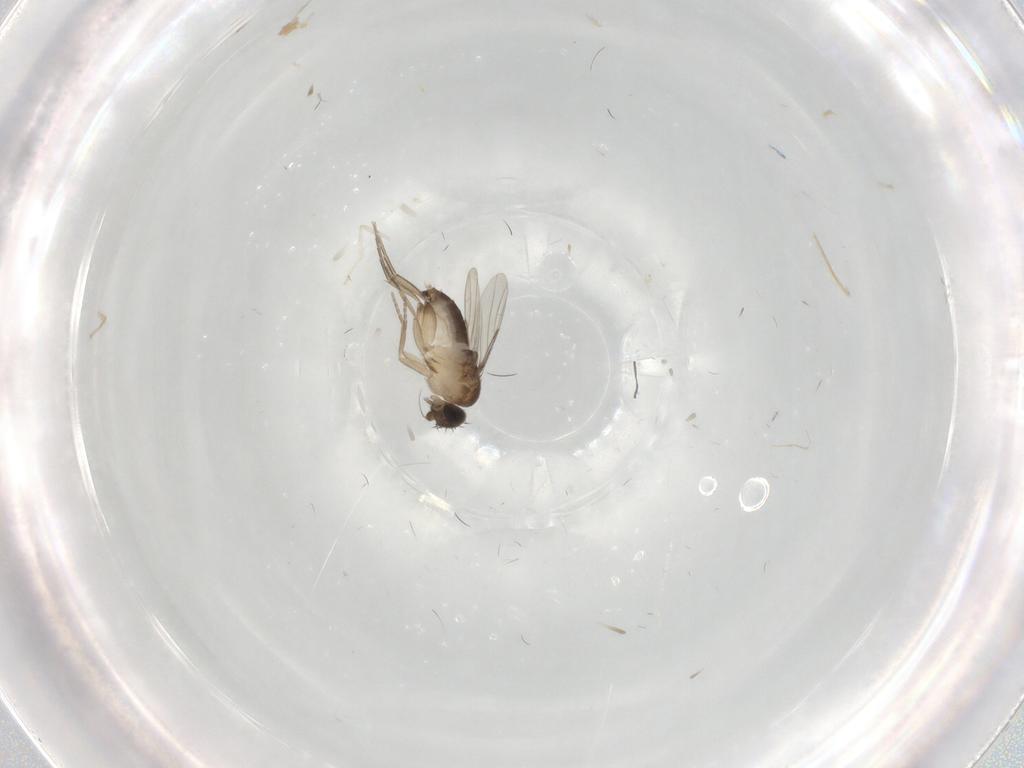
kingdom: Animalia
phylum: Arthropoda
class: Insecta
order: Diptera
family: Phoridae
